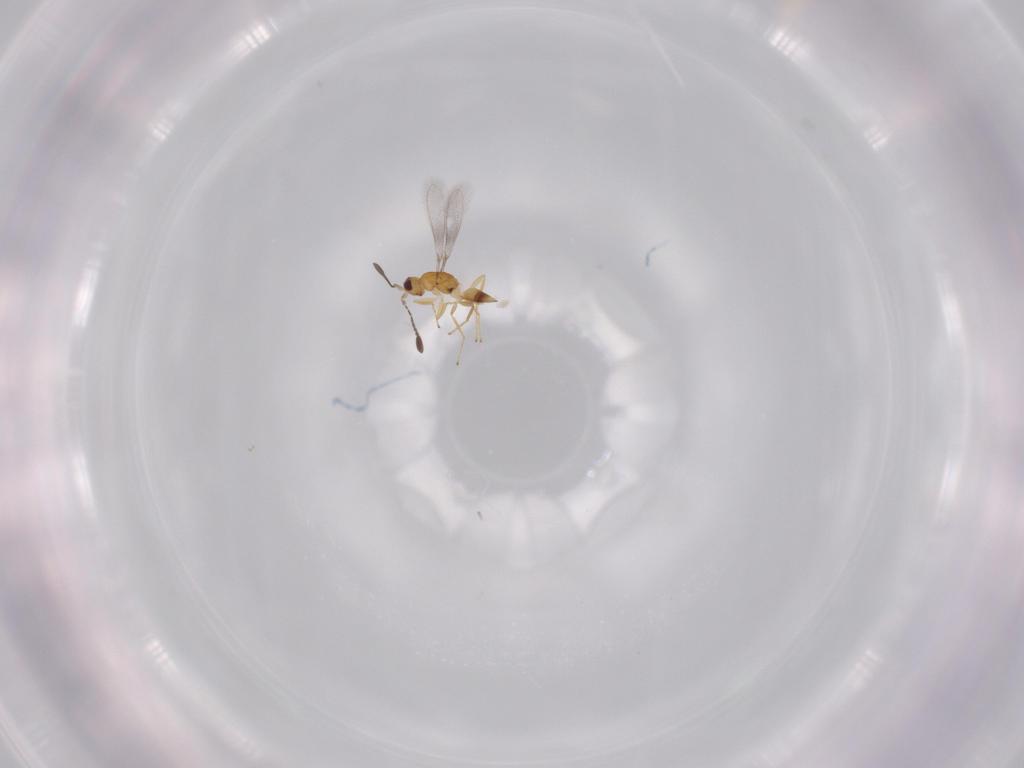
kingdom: Animalia
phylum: Arthropoda
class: Insecta
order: Hymenoptera
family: Mymaridae
